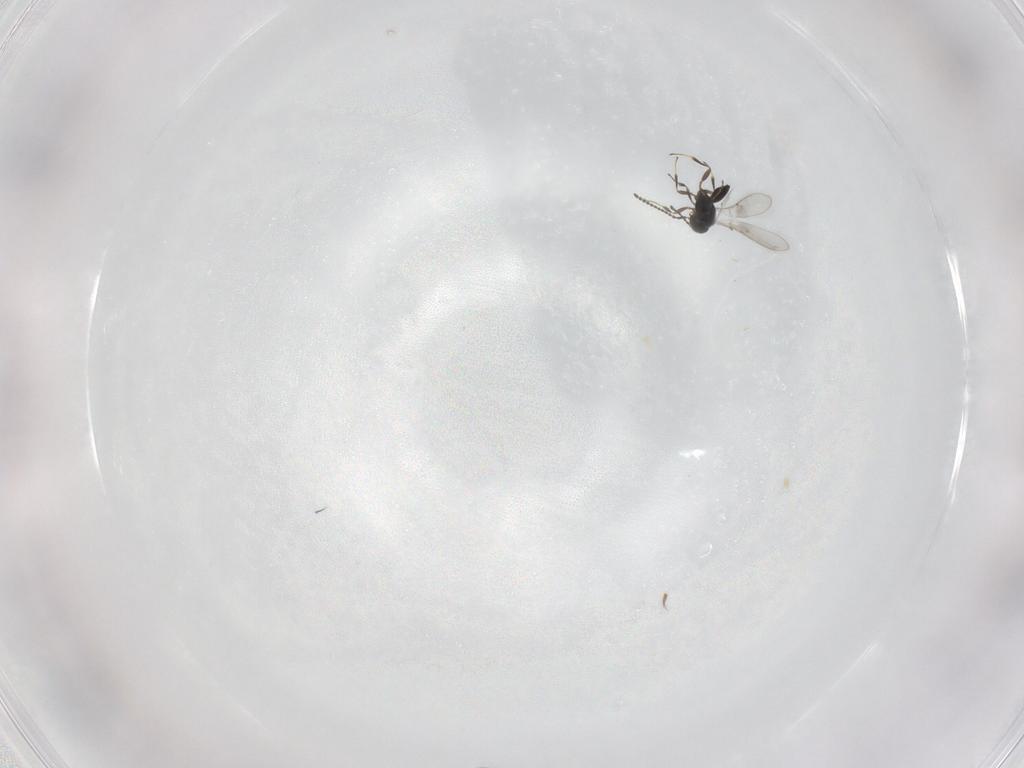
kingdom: Animalia
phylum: Arthropoda
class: Insecta
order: Hymenoptera
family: Scelionidae
